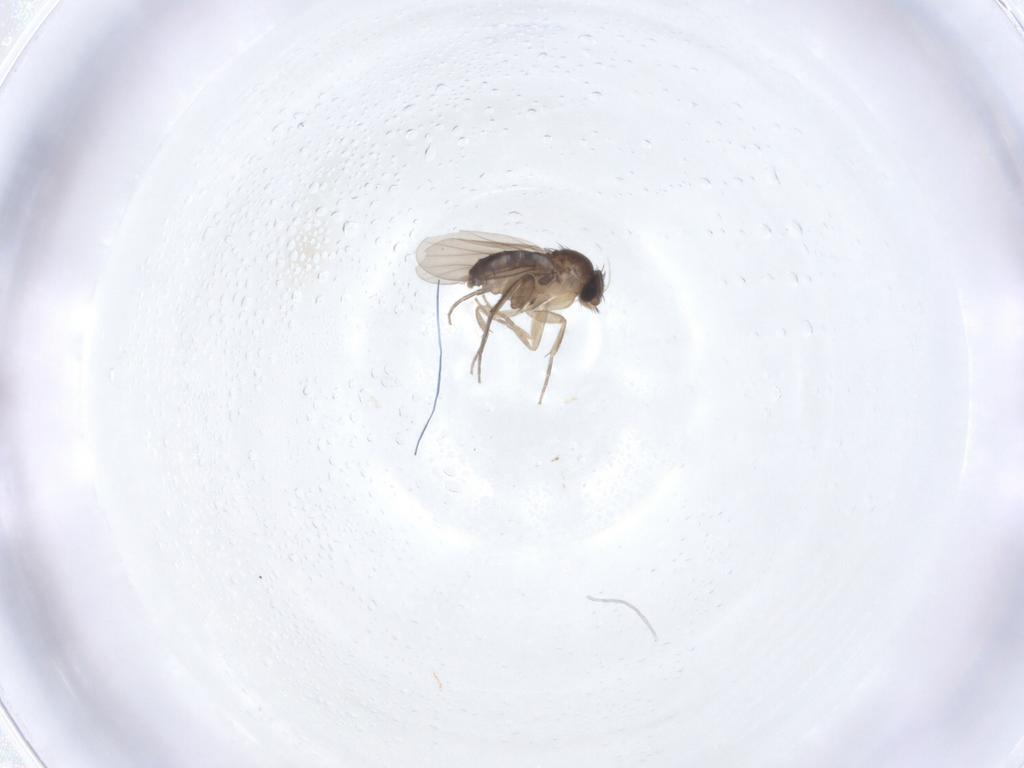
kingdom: Animalia
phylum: Arthropoda
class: Insecta
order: Diptera
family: Phoridae
